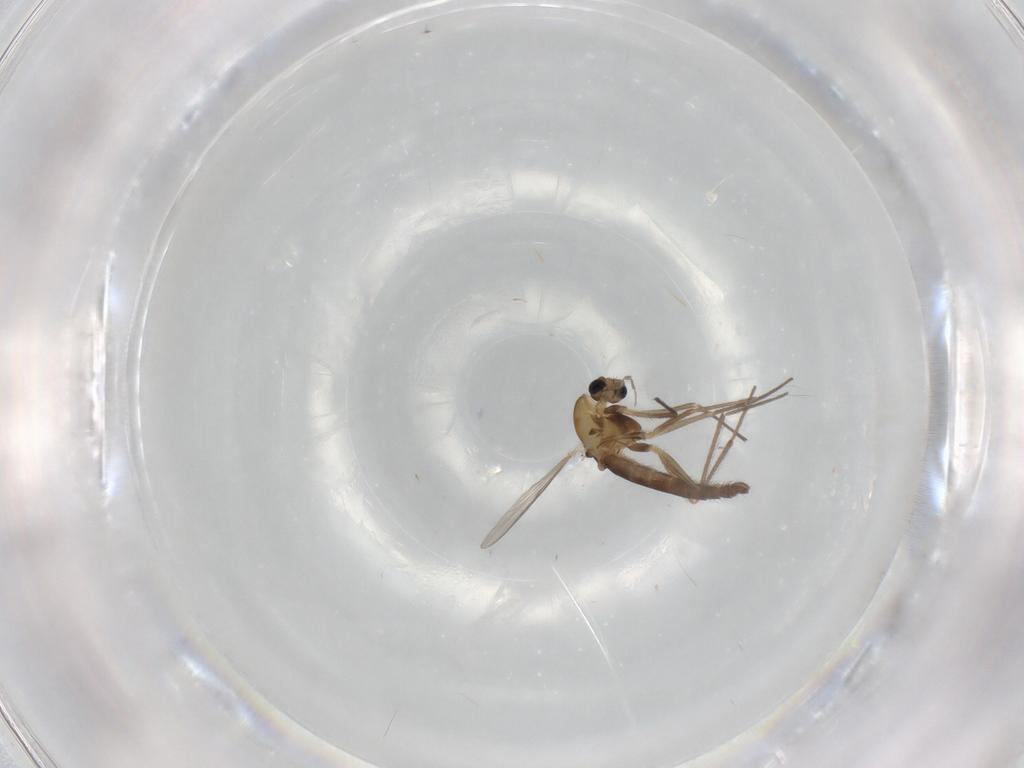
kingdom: Animalia
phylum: Arthropoda
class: Insecta
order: Diptera
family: Chironomidae
